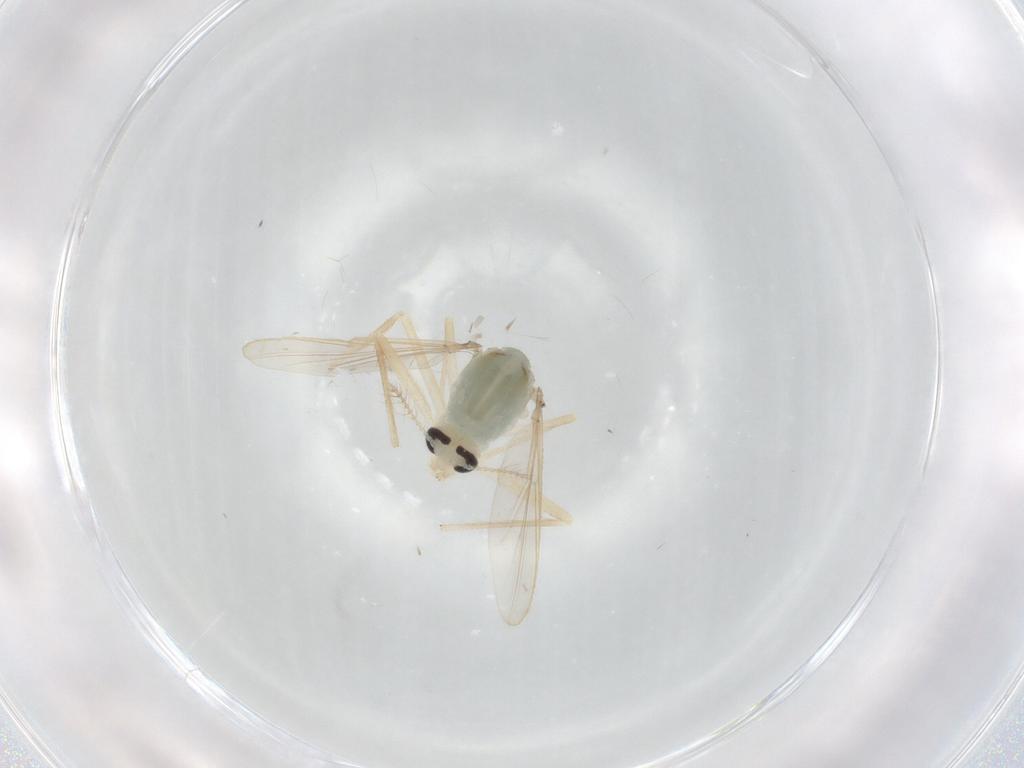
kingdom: Animalia
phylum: Arthropoda
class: Insecta
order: Diptera
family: Chironomidae
